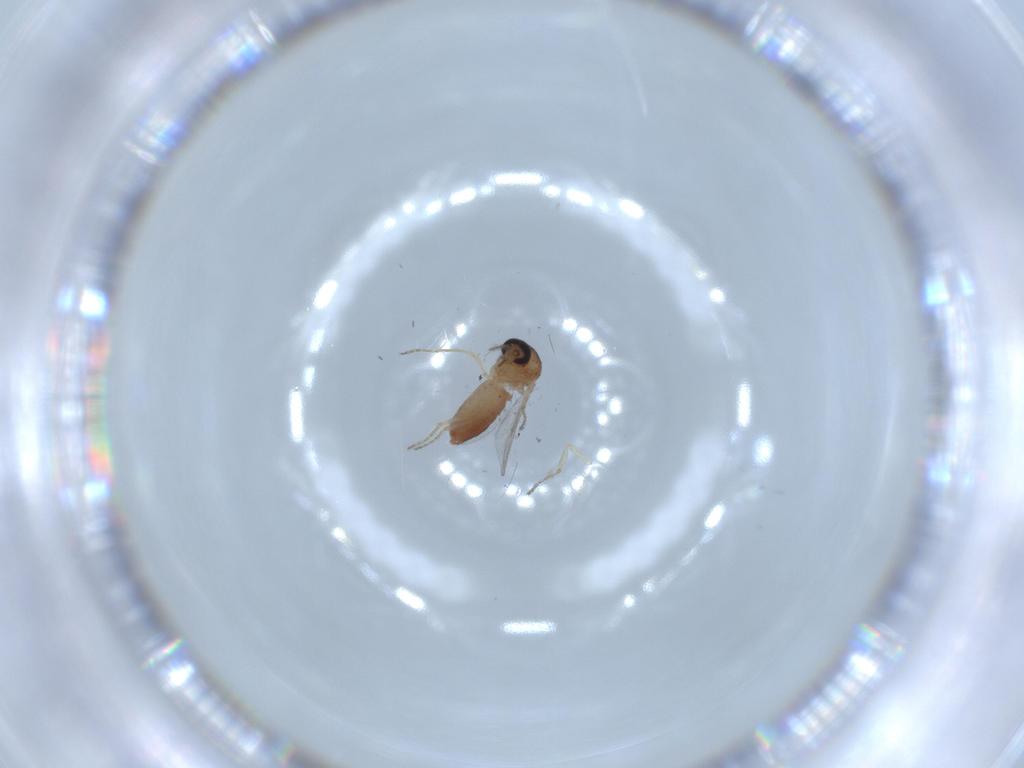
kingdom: Animalia
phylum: Arthropoda
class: Insecta
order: Diptera
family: Ceratopogonidae
